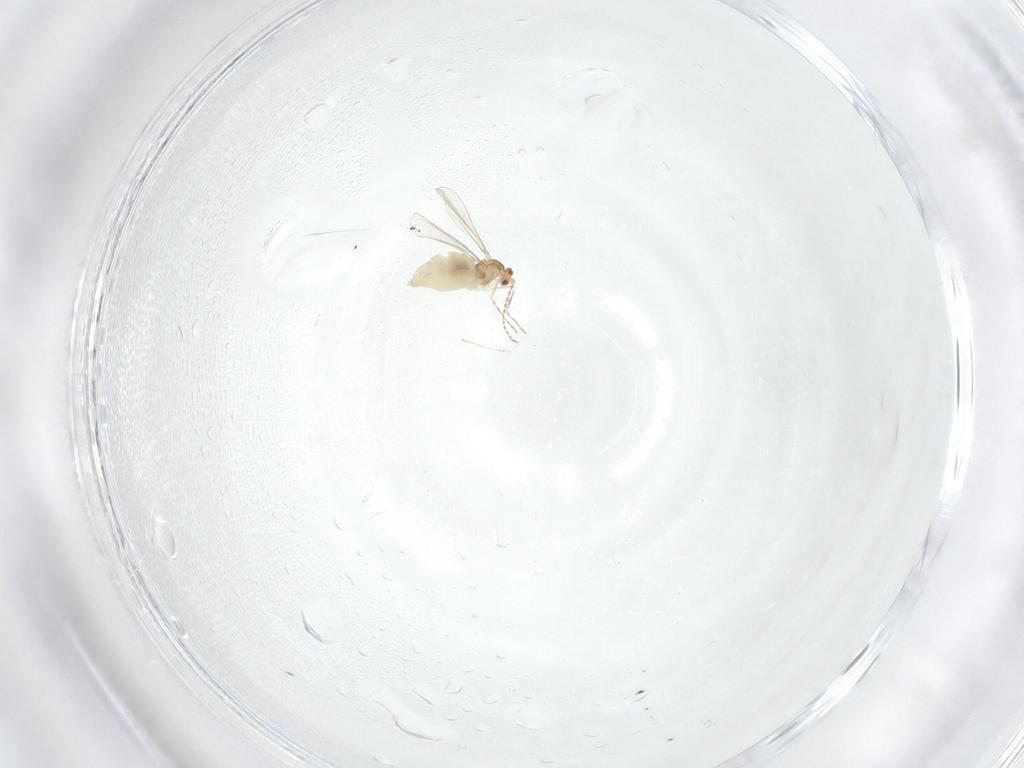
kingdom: Animalia
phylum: Arthropoda
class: Insecta
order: Diptera
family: Cecidomyiidae
